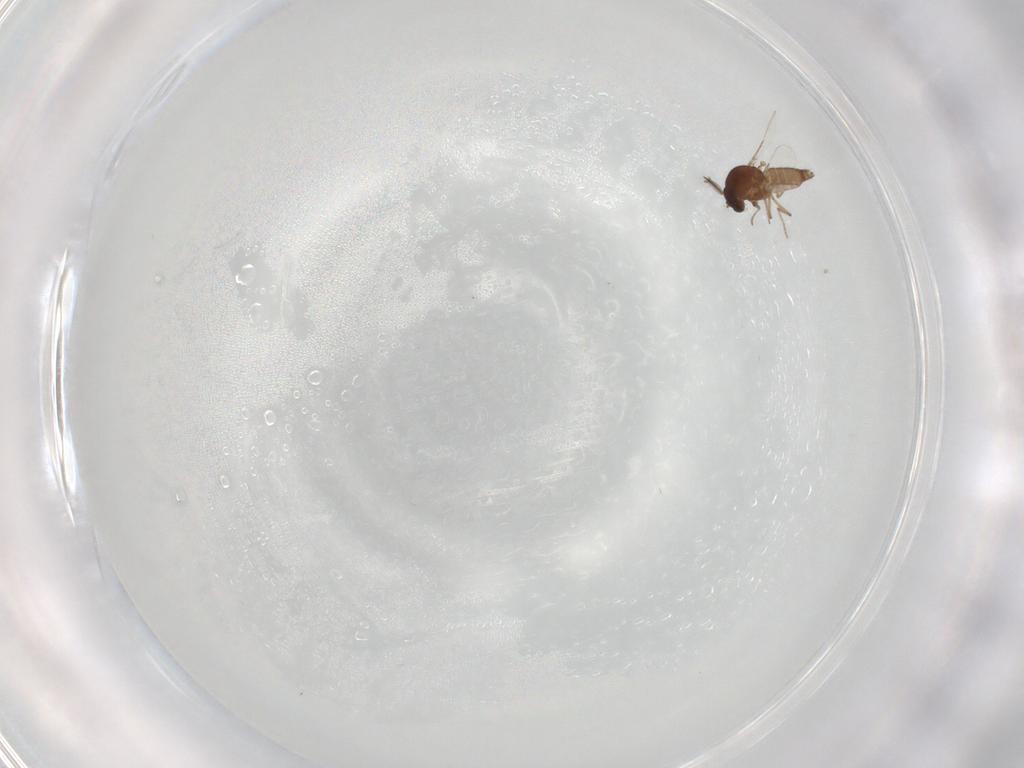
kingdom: Animalia
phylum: Arthropoda
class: Insecta
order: Diptera
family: Ceratopogonidae
